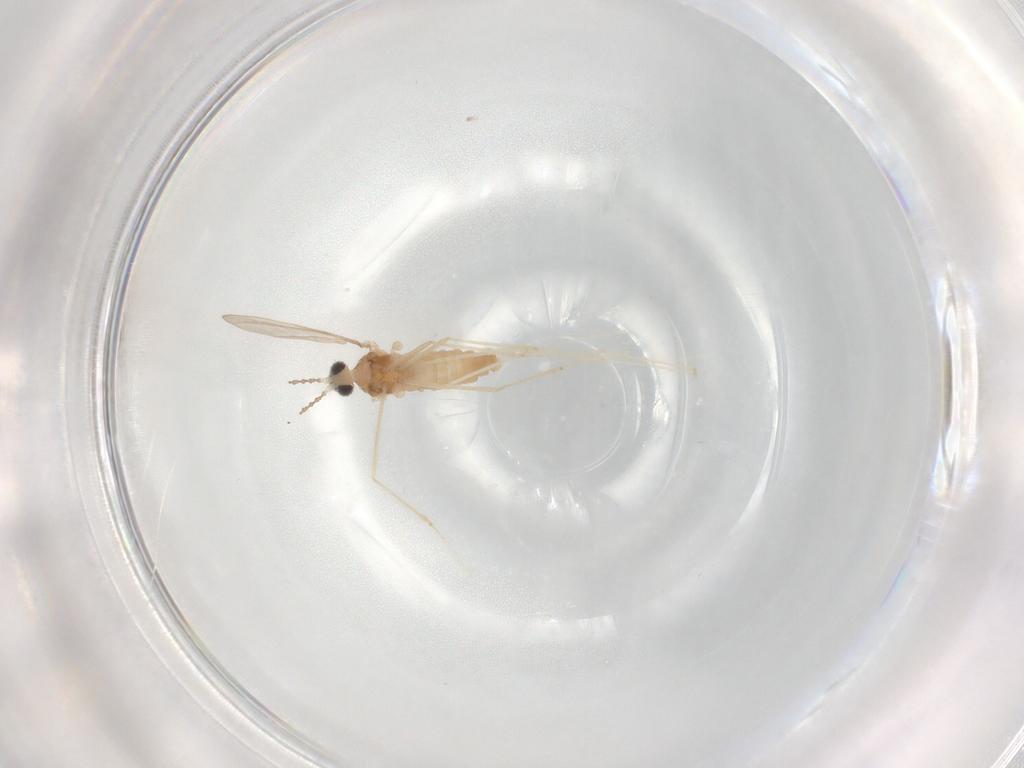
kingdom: Animalia
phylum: Arthropoda
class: Insecta
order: Diptera
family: Cecidomyiidae
